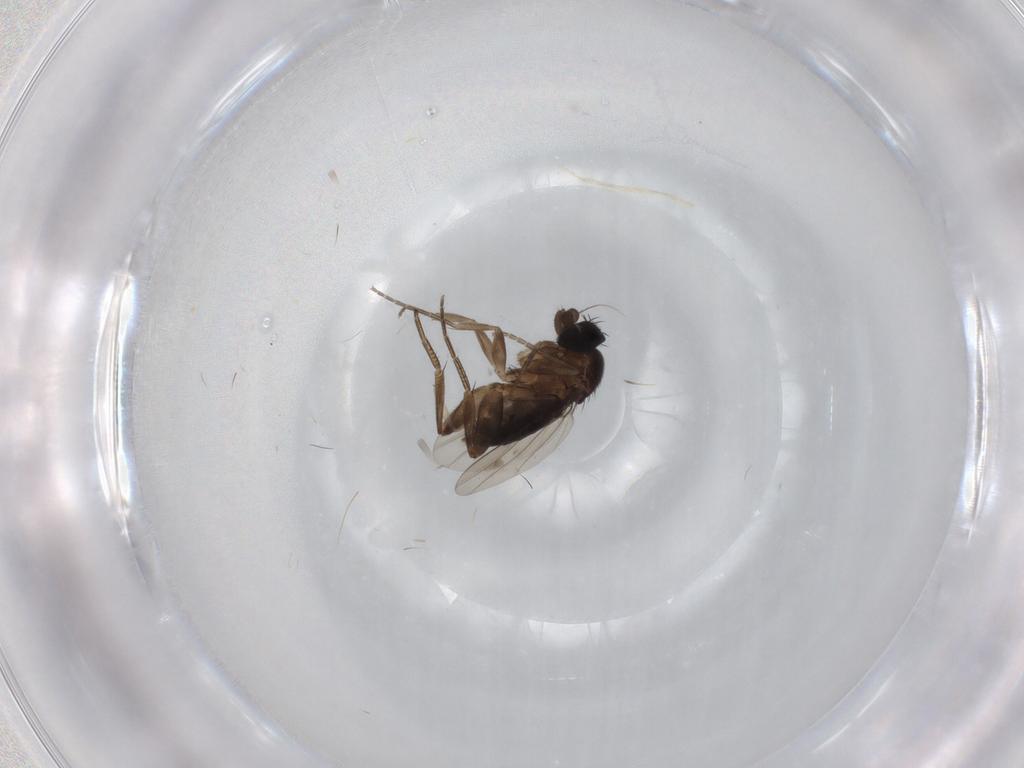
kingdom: Animalia
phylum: Arthropoda
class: Insecta
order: Diptera
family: Phoridae
